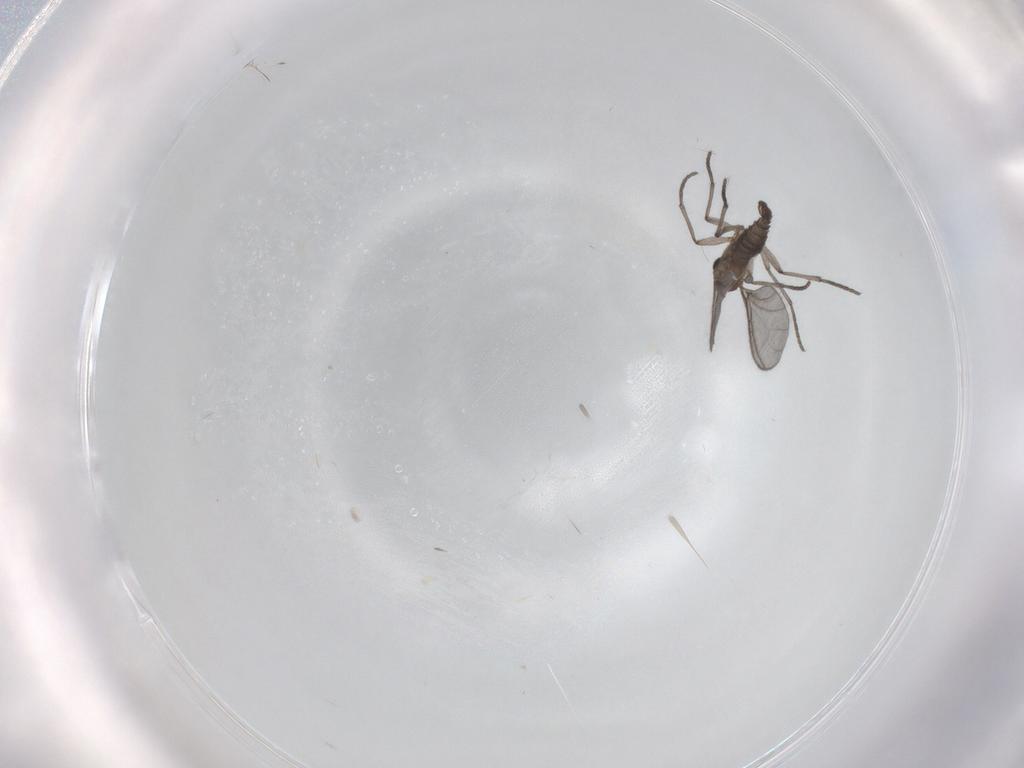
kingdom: Animalia
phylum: Arthropoda
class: Insecta
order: Diptera
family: Sciaridae
